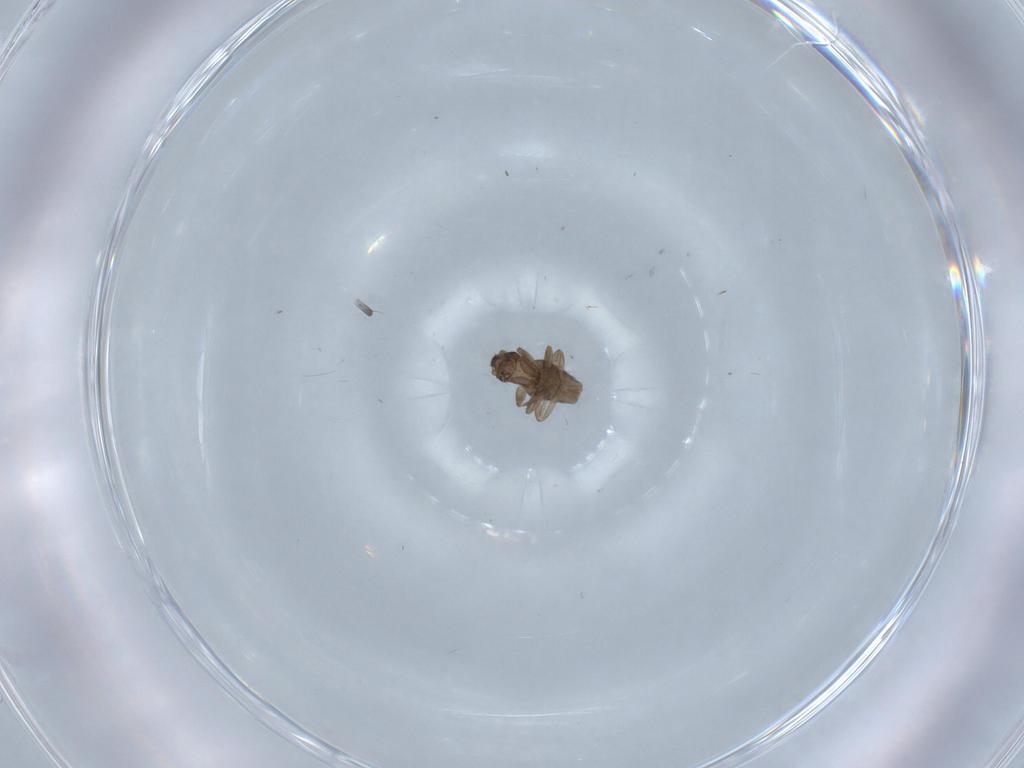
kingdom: Animalia
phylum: Arthropoda
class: Insecta
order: Diptera
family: Phoridae
